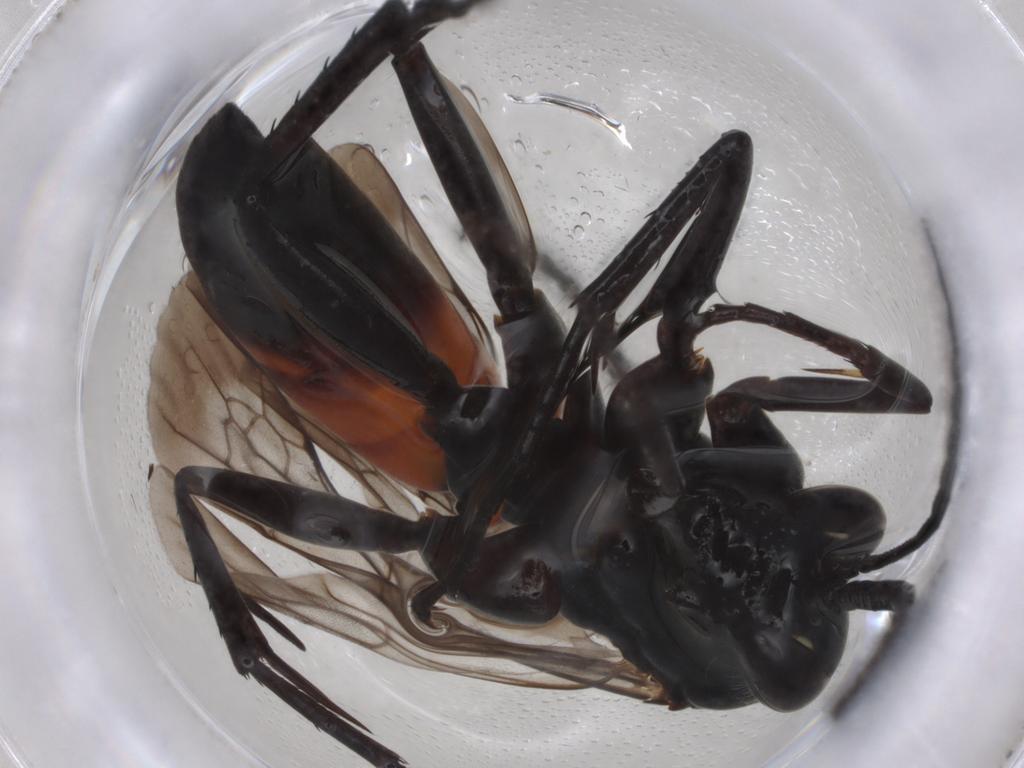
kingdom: Animalia
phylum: Arthropoda
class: Insecta
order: Hymenoptera
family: Pompilidae
